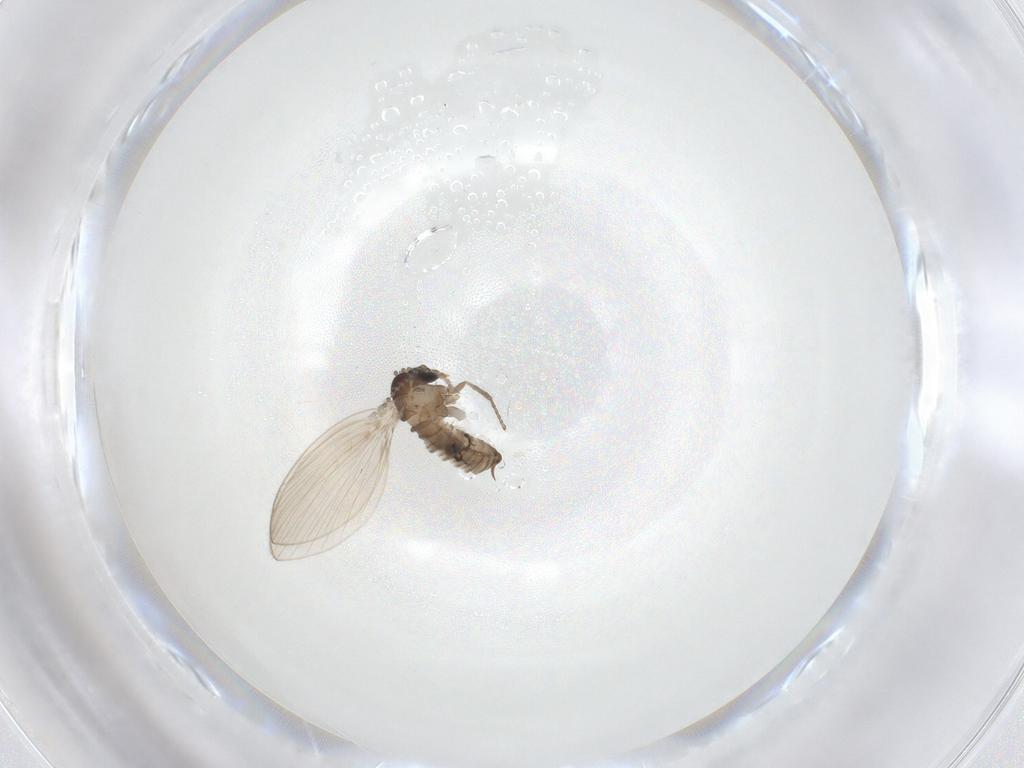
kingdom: Animalia
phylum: Arthropoda
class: Insecta
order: Diptera
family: Psychodidae
